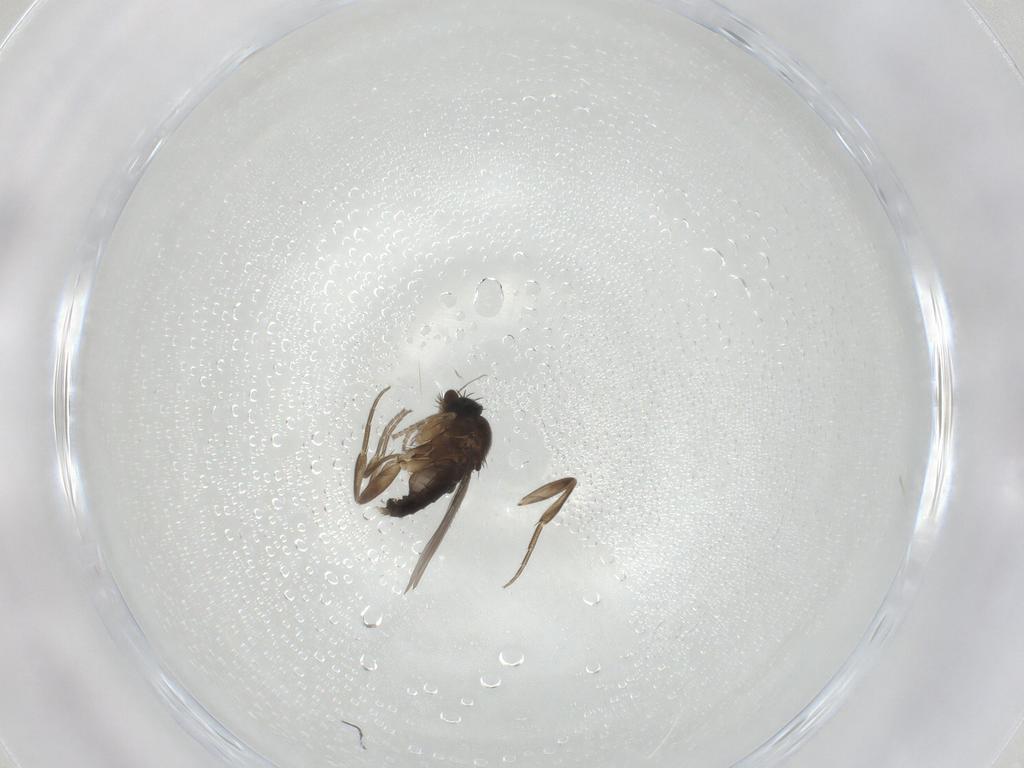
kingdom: Animalia
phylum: Arthropoda
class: Insecta
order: Diptera
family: Phoridae
